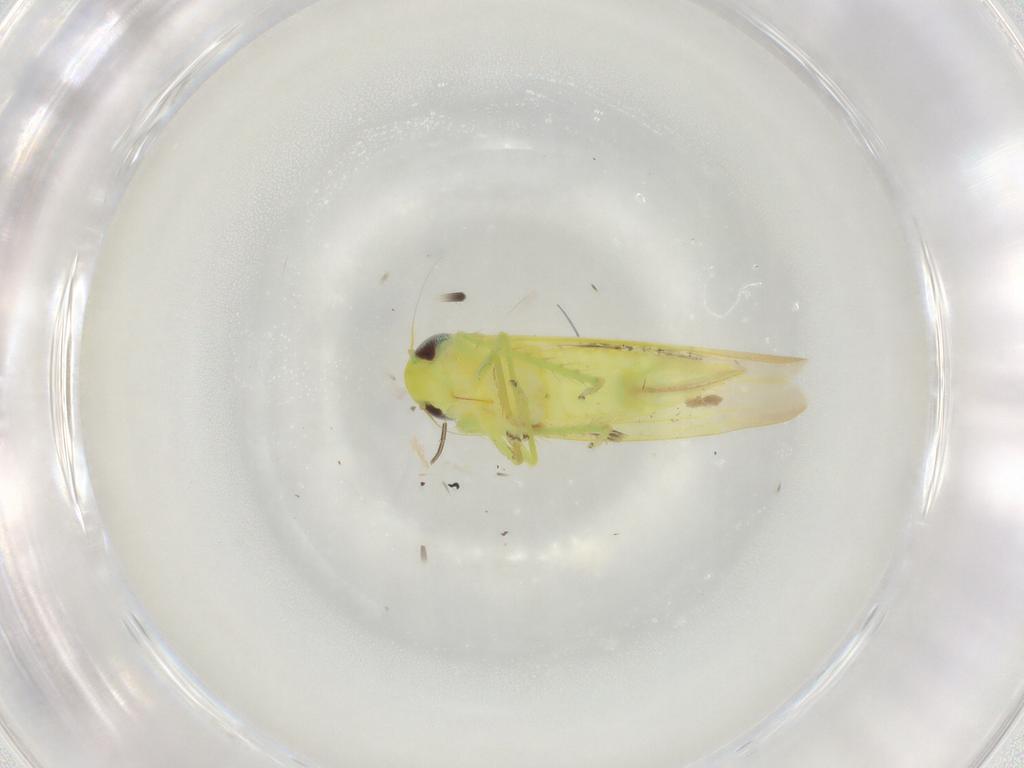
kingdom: Animalia
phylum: Arthropoda
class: Insecta
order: Hemiptera
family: Cicadellidae
